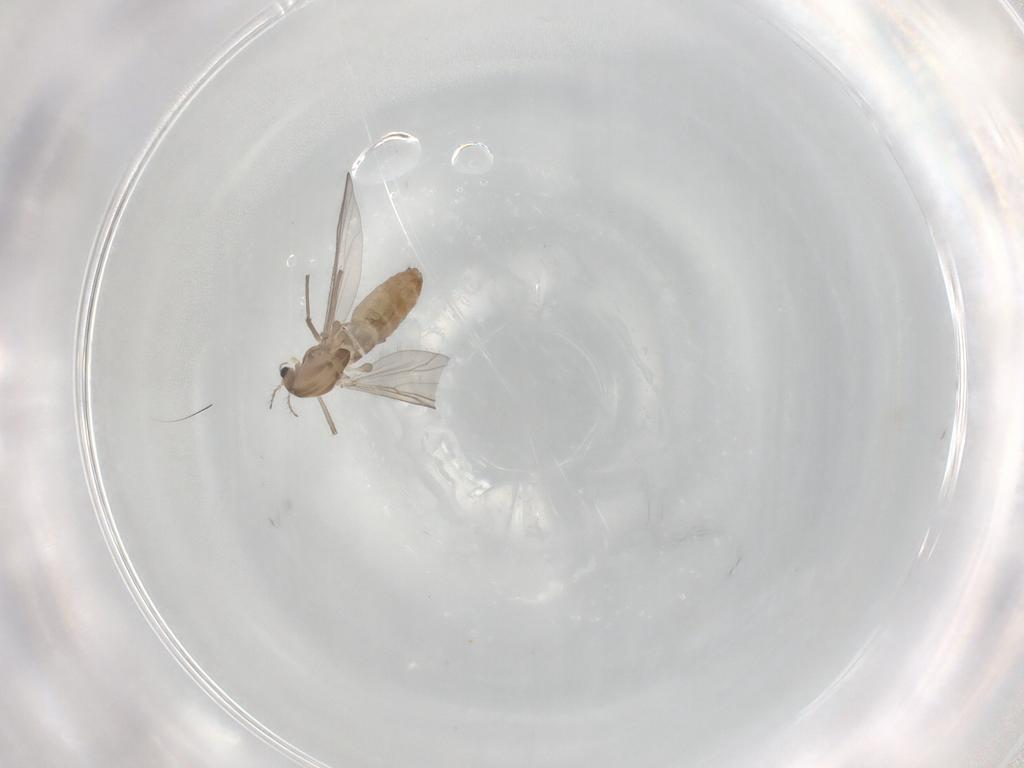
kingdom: Animalia
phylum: Arthropoda
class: Insecta
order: Diptera
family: Chironomidae
